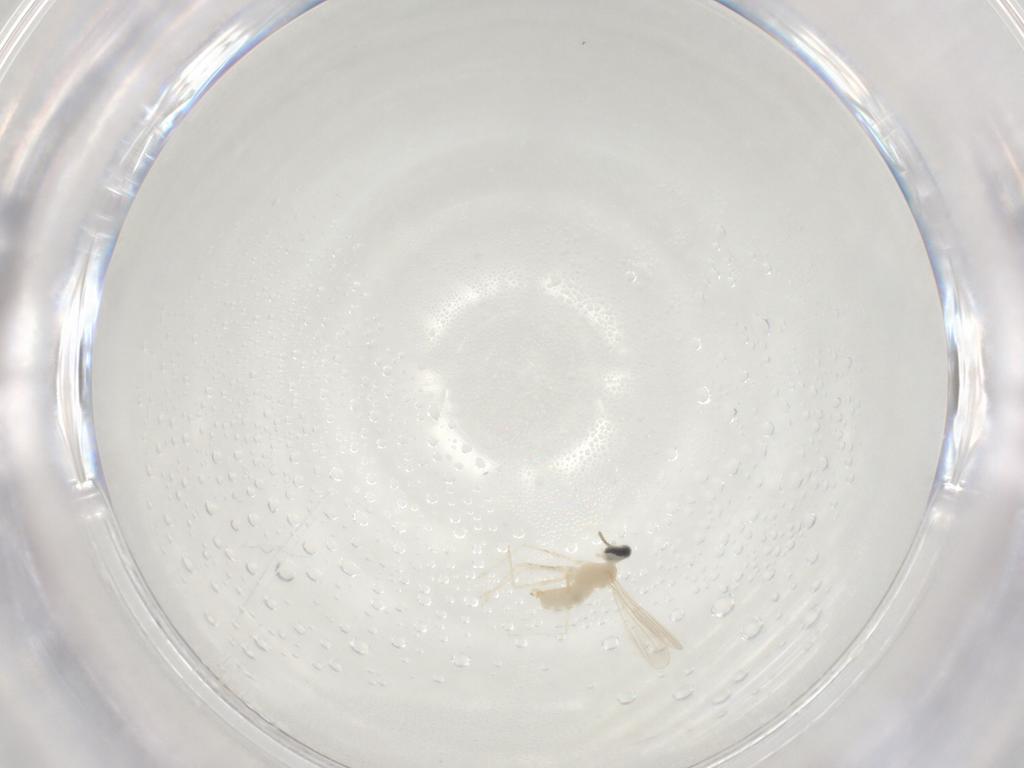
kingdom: Animalia
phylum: Arthropoda
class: Insecta
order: Diptera
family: Cecidomyiidae
